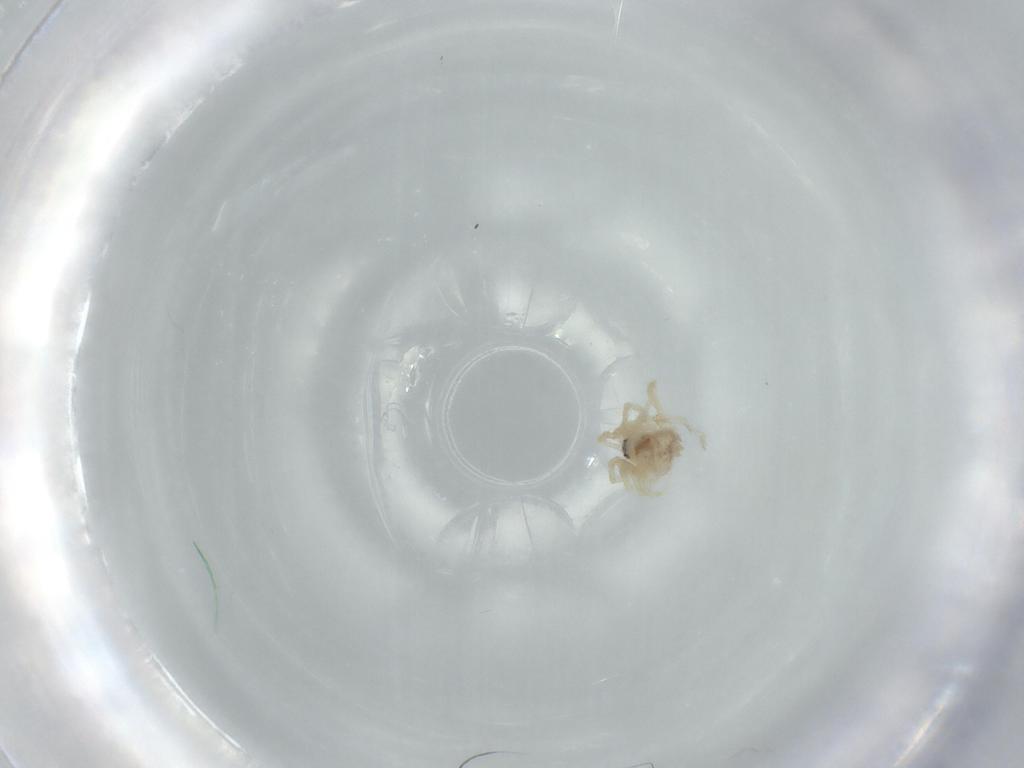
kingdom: Animalia
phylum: Arthropoda
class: Arachnida
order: Araneae
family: Oonopidae
